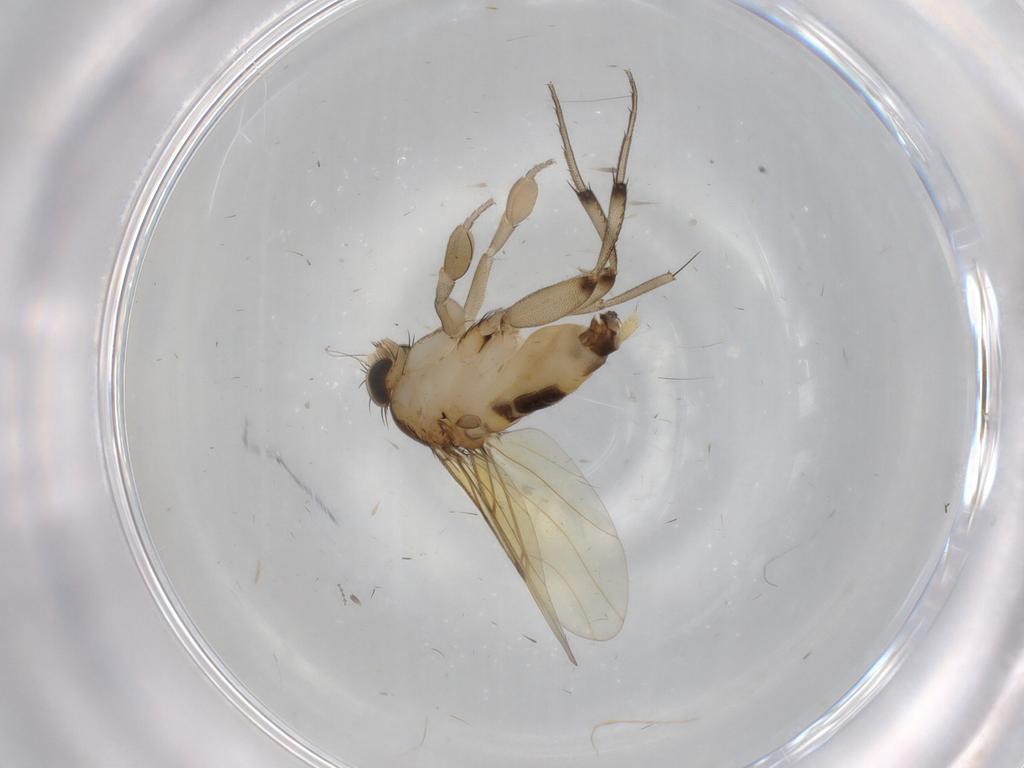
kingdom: Animalia
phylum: Arthropoda
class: Insecta
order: Diptera
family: Phoridae
